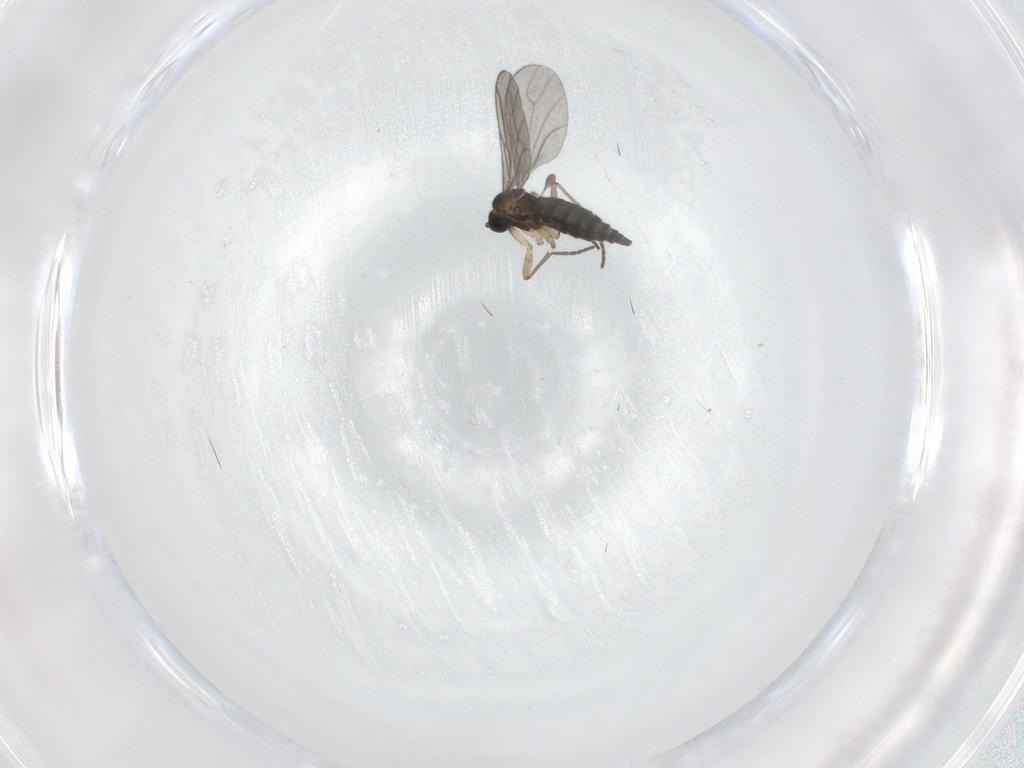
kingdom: Animalia
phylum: Arthropoda
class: Insecta
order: Diptera
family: Sciaridae
